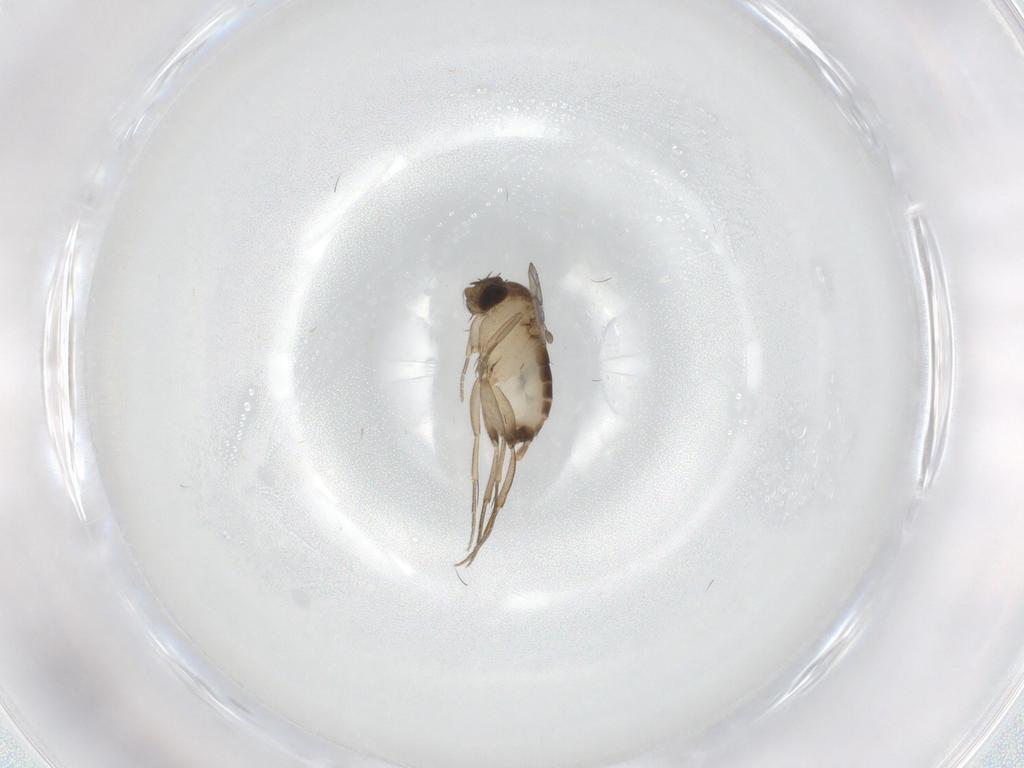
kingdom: Animalia
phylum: Arthropoda
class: Insecta
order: Diptera
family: Phoridae
